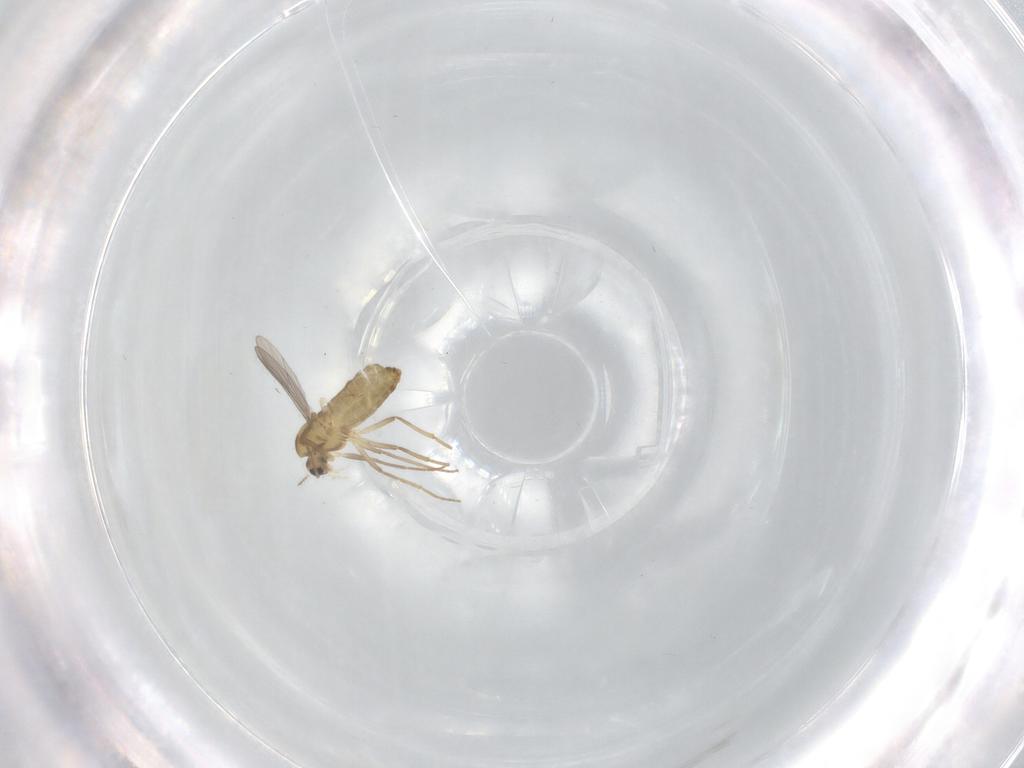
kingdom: Animalia
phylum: Arthropoda
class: Insecta
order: Diptera
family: Chironomidae
